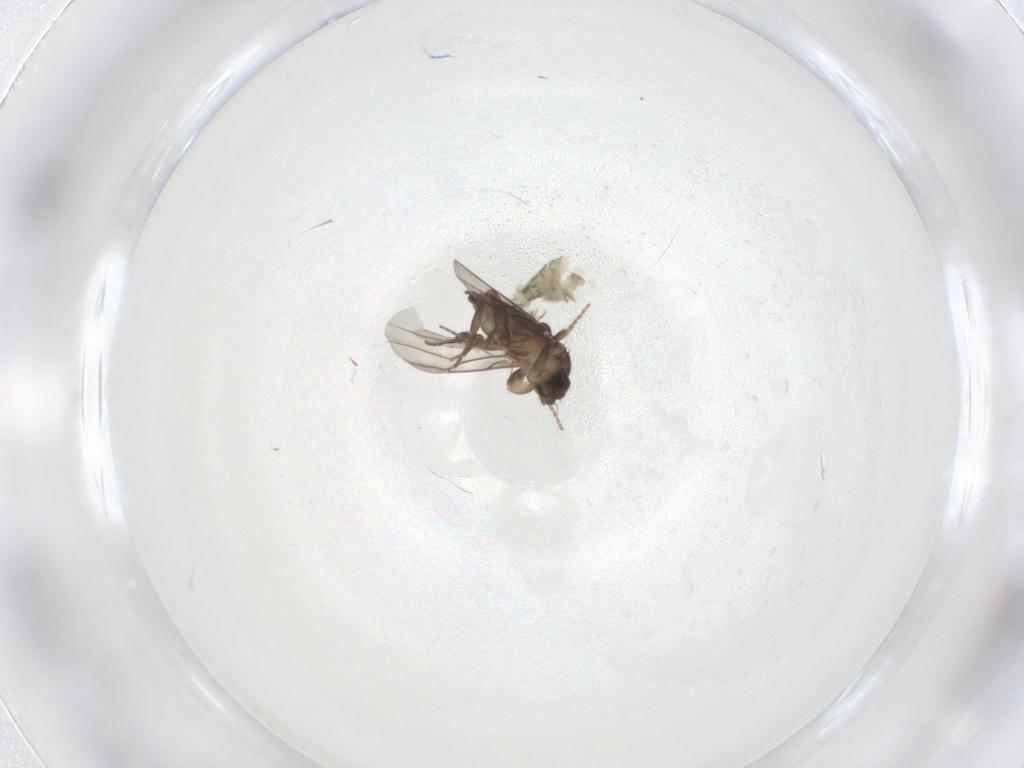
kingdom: Animalia
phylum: Arthropoda
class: Insecta
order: Diptera
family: Chironomidae
